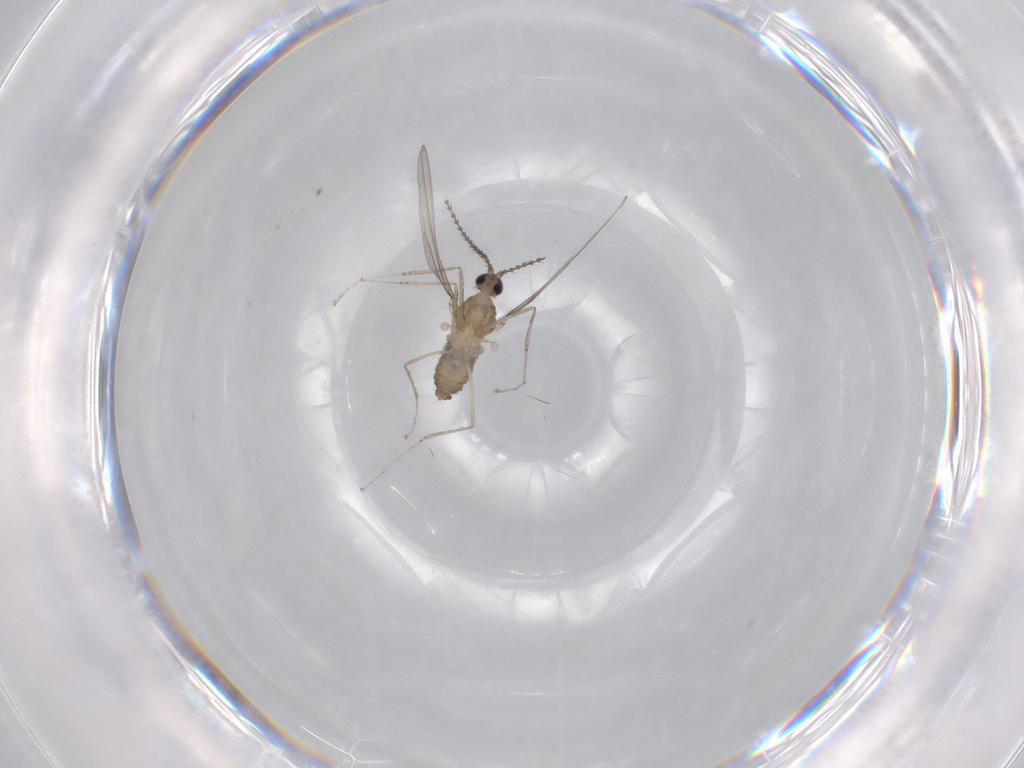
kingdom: Animalia
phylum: Arthropoda
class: Insecta
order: Diptera
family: Cecidomyiidae
